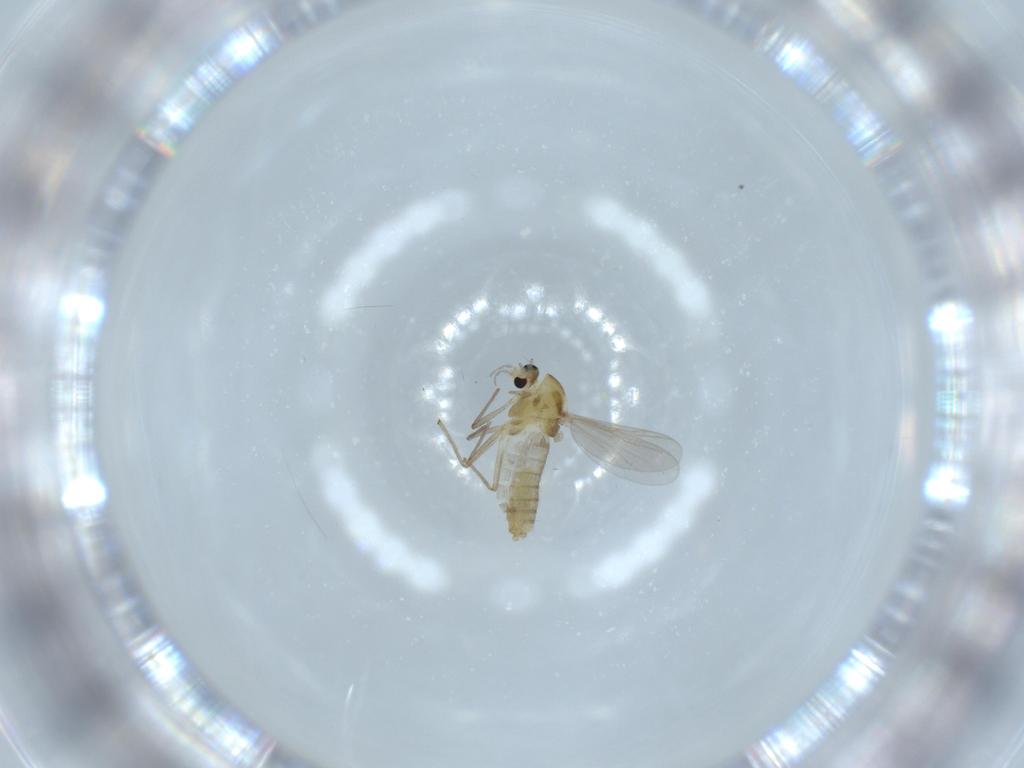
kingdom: Animalia
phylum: Arthropoda
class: Insecta
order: Diptera
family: Chironomidae
